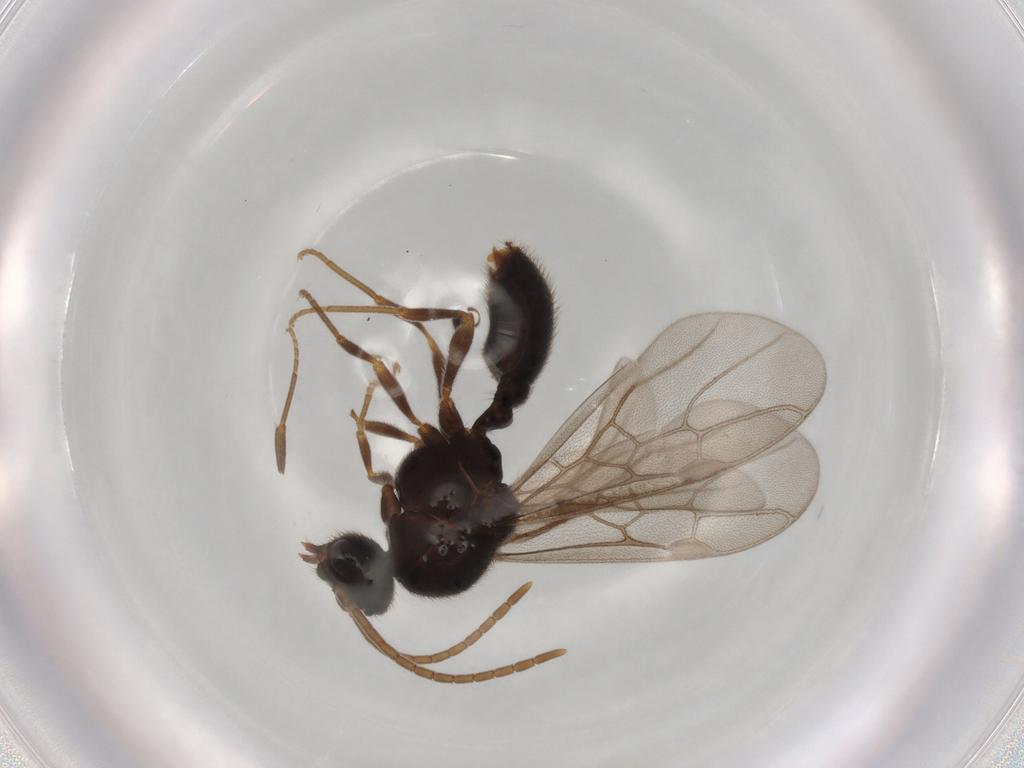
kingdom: Animalia
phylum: Arthropoda
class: Insecta
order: Hymenoptera
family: Formicidae
